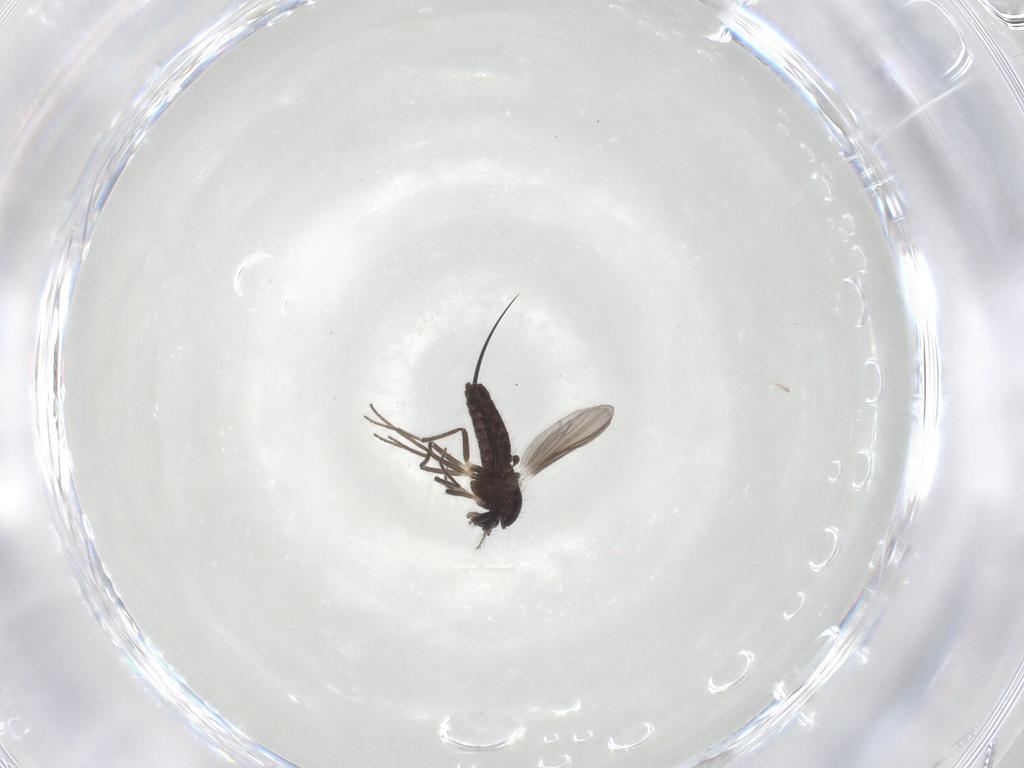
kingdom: Animalia
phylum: Arthropoda
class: Insecta
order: Diptera
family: Chironomidae
